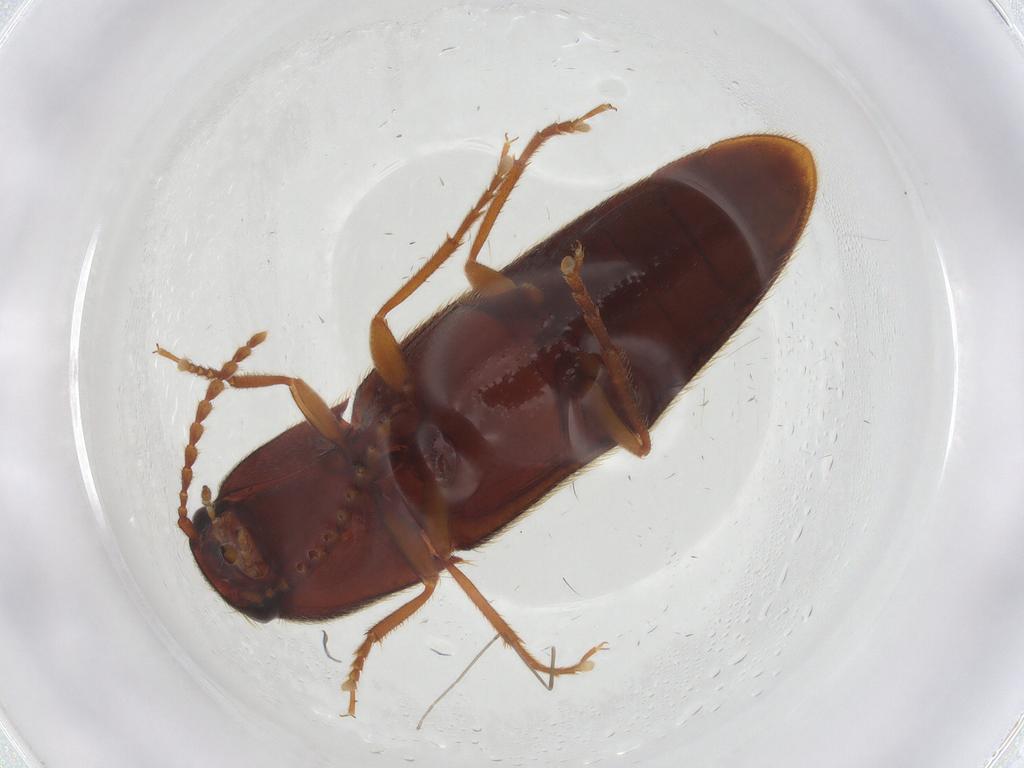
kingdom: Animalia
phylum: Arthropoda
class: Insecta
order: Coleoptera
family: Elateridae
